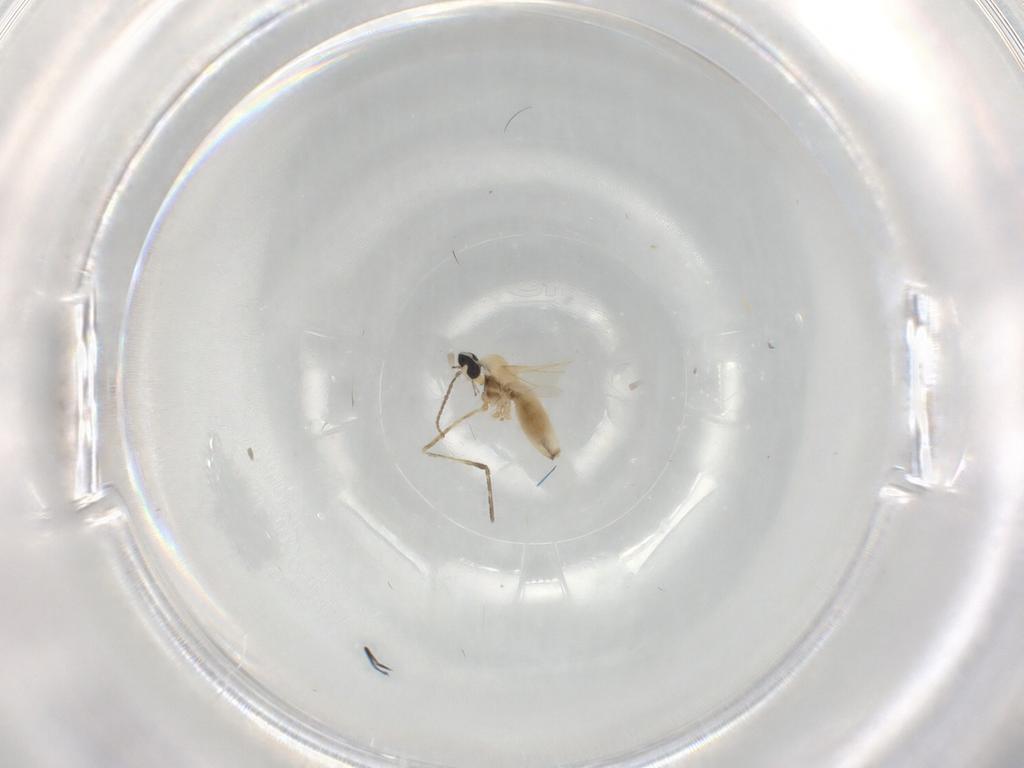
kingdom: Animalia
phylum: Arthropoda
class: Insecta
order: Diptera
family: Cecidomyiidae
